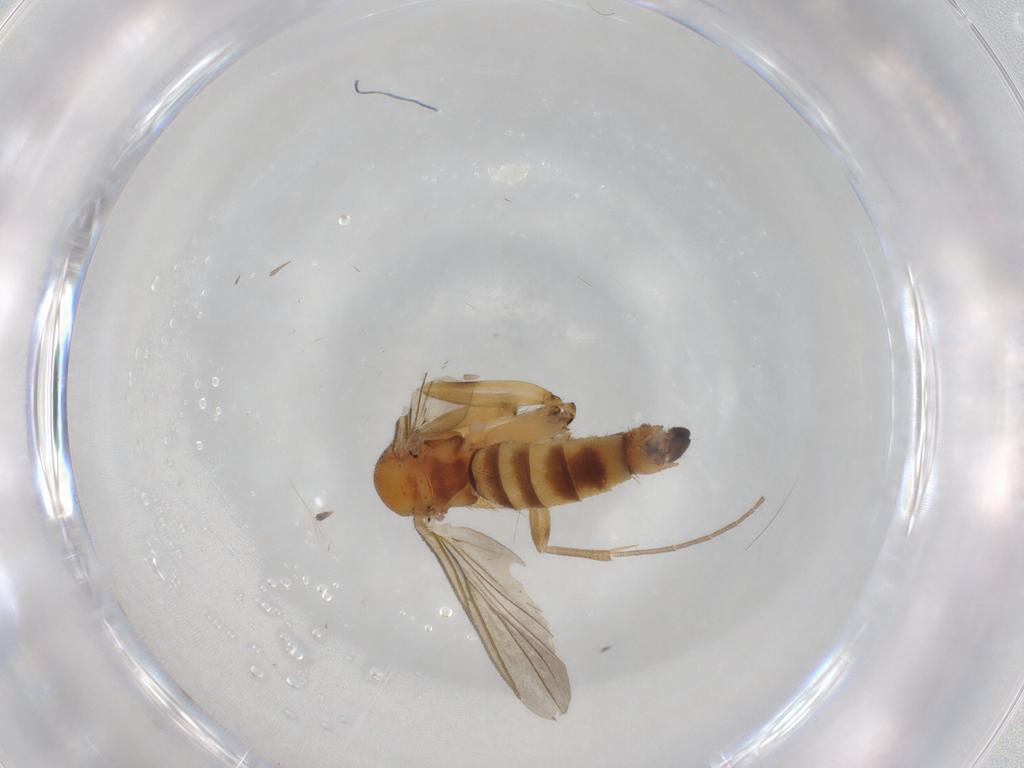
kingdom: Animalia
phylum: Arthropoda
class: Insecta
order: Diptera
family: Mycetophilidae
